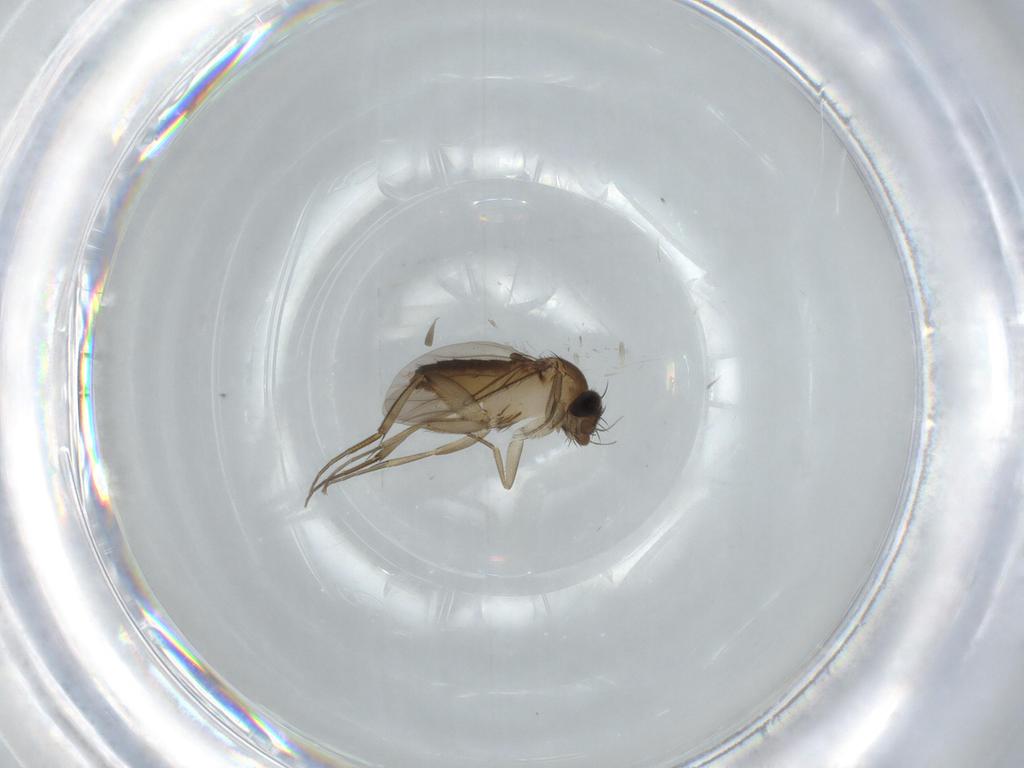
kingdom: Animalia
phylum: Arthropoda
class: Insecta
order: Diptera
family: Phoridae
